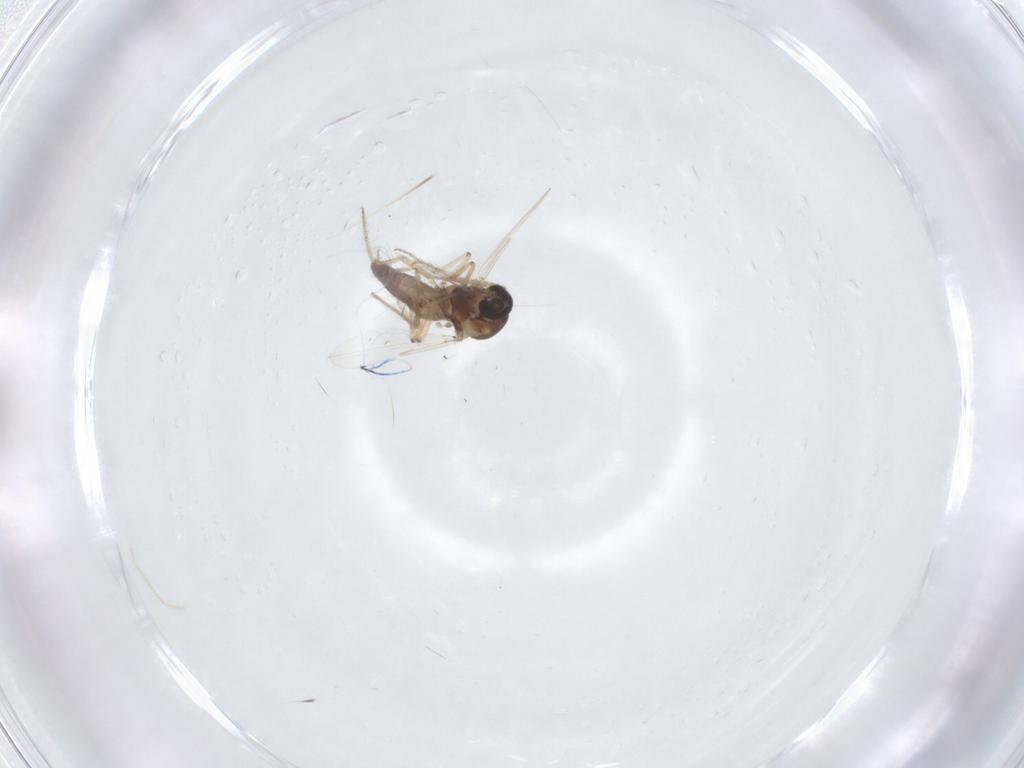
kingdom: Animalia
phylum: Arthropoda
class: Insecta
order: Diptera
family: Ceratopogonidae
